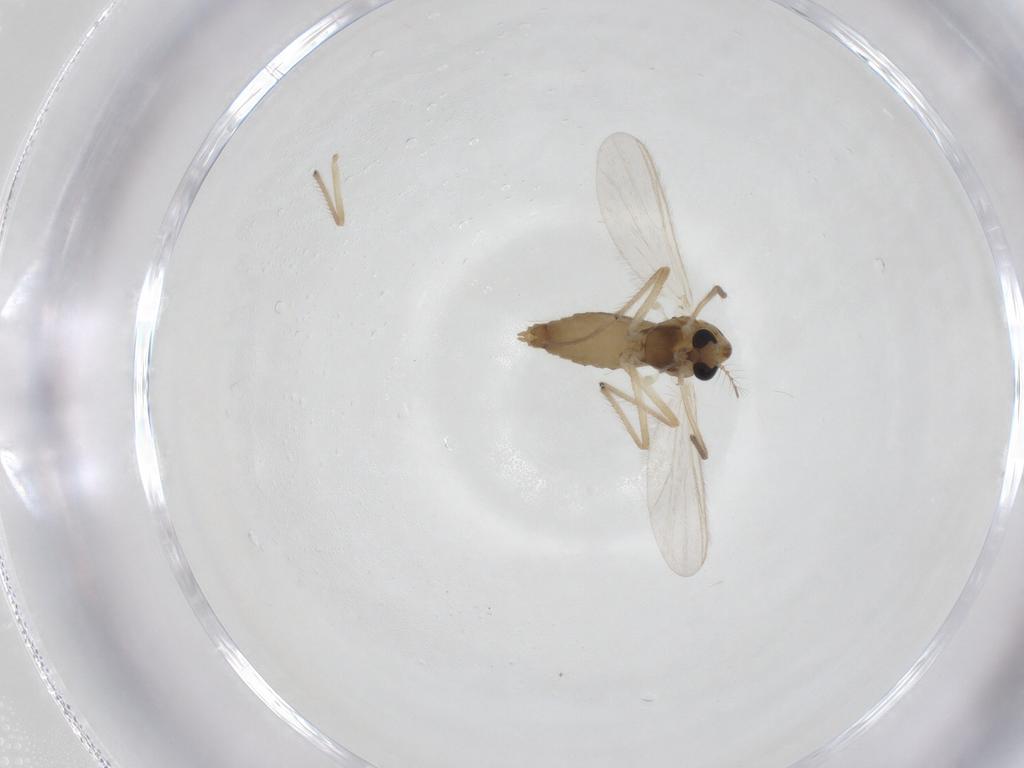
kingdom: Animalia
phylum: Arthropoda
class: Insecta
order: Diptera
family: Chironomidae
